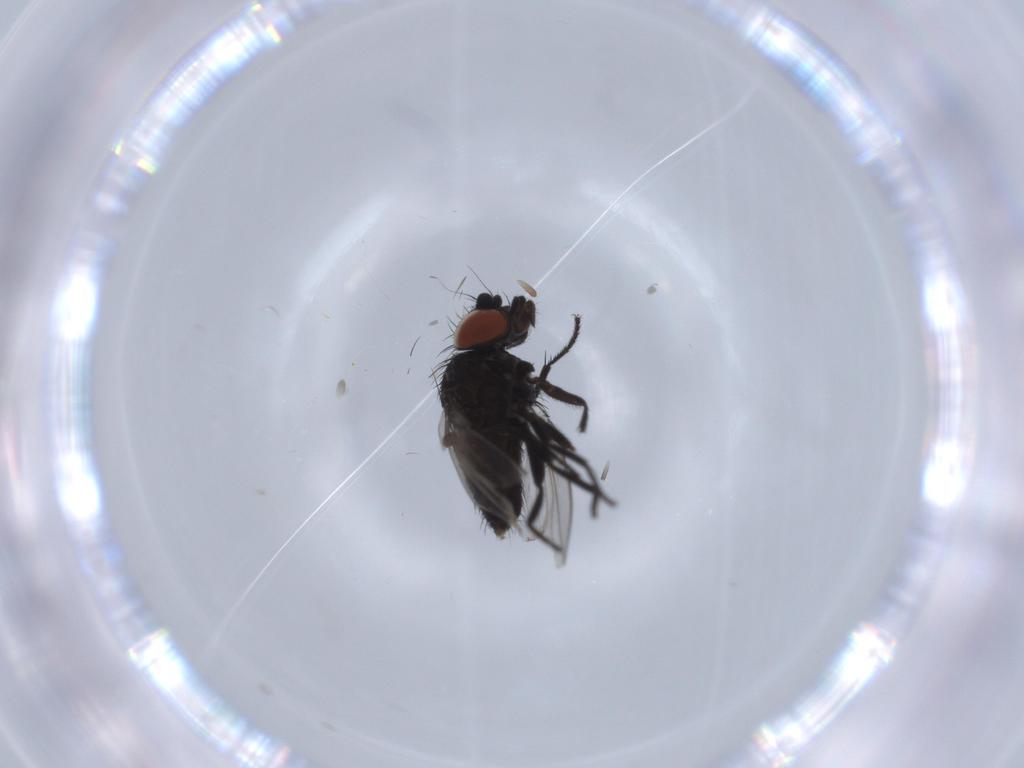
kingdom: Animalia
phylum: Arthropoda
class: Insecta
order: Diptera
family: Milichiidae
